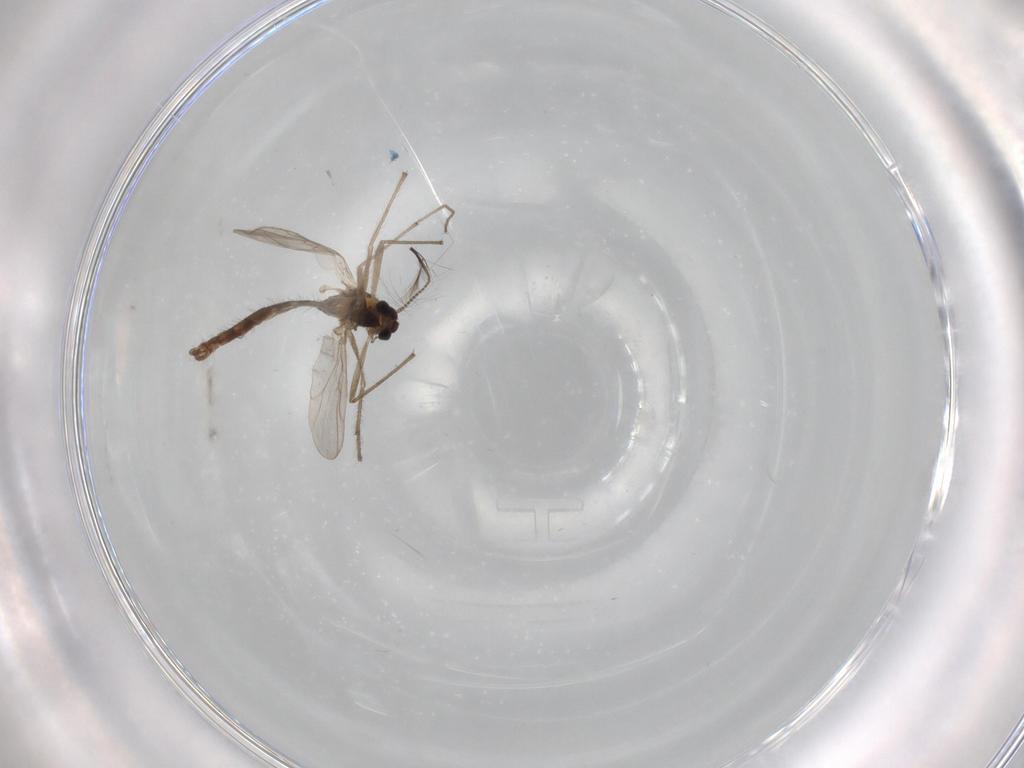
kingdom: Animalia
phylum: Arthropoda
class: Insecta
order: Diptera
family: Chironomidae
